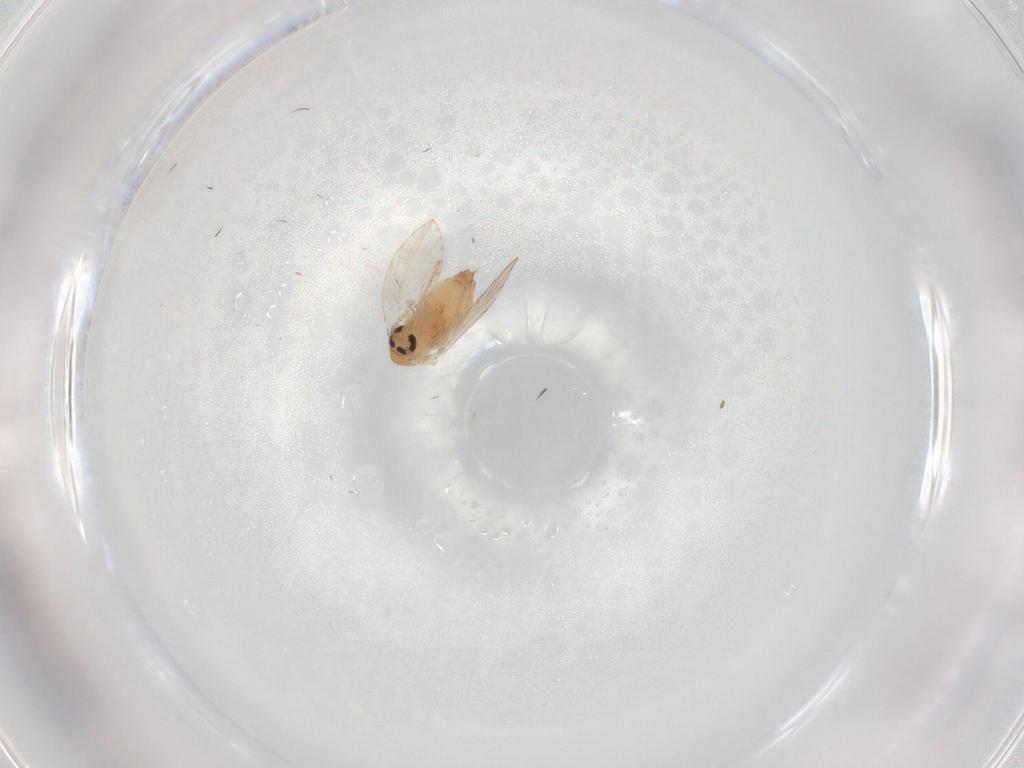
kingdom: Animalia
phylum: Arthropoda
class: Insecta
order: Diptera
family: Psychodidae
